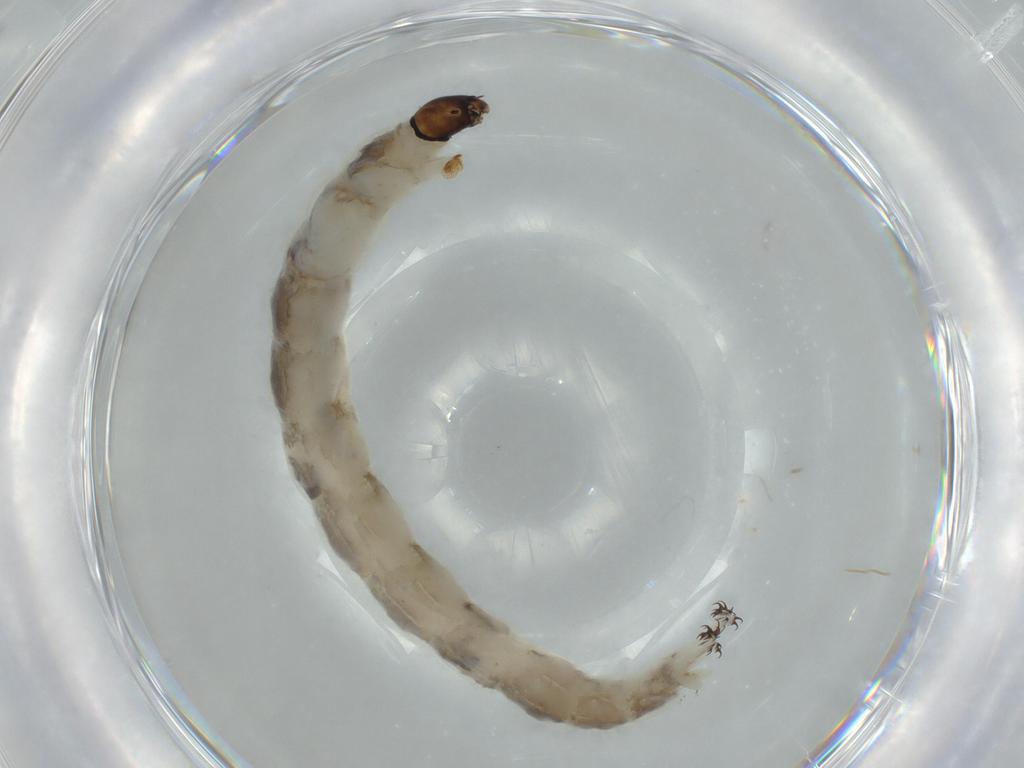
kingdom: Animalia
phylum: Arthropoda
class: Insecta
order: Diptera
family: Chironomidae
